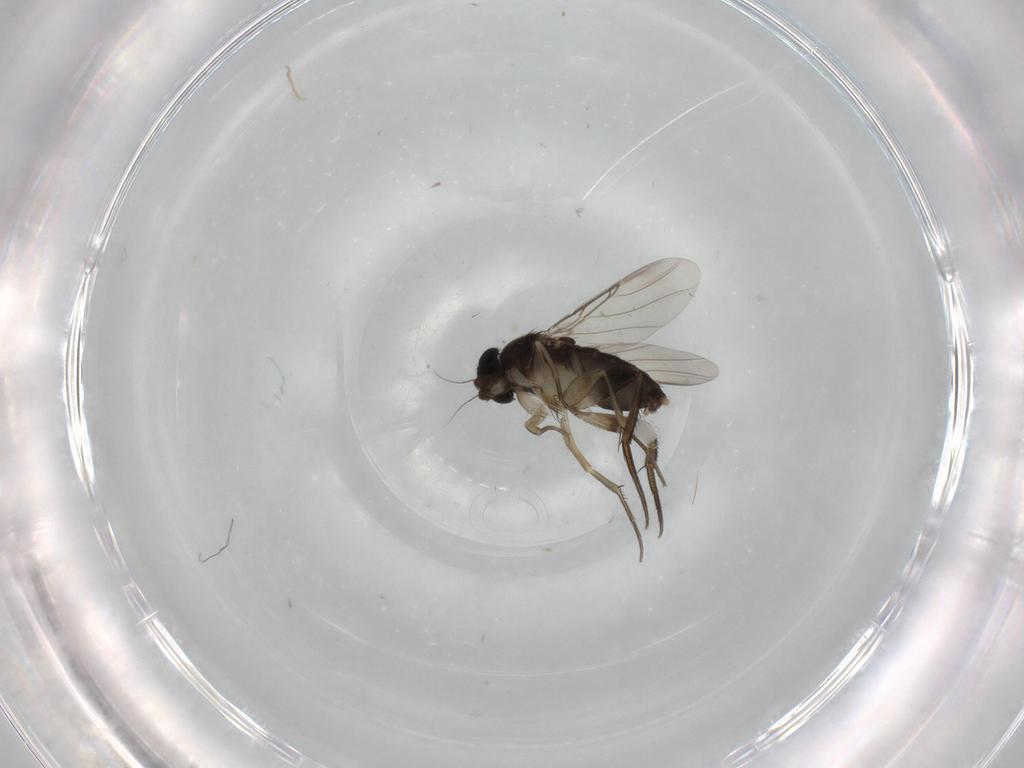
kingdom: Animalia
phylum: Arthropoda
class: Insecta
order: Diptera
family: Phoridae
